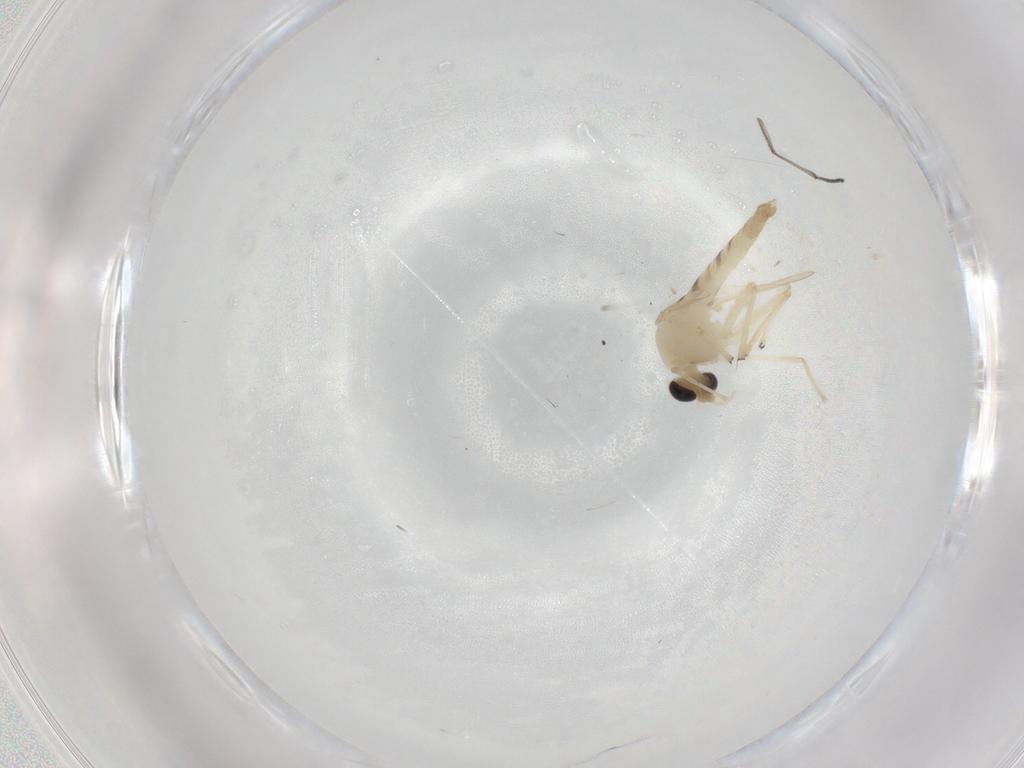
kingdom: Animalia
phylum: Arthropoda
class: Insecta
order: Diptera
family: Chironomidae
